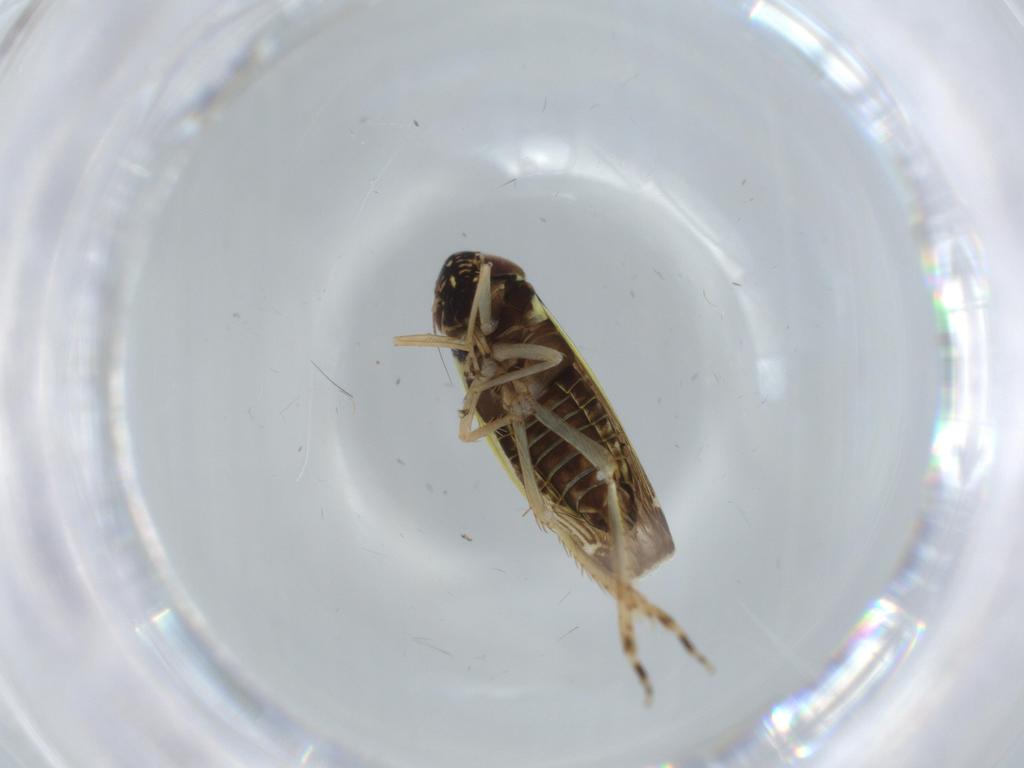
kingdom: Animalia
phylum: Arthropoda
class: Insecta
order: Hemiptera
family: Cicadellidae
